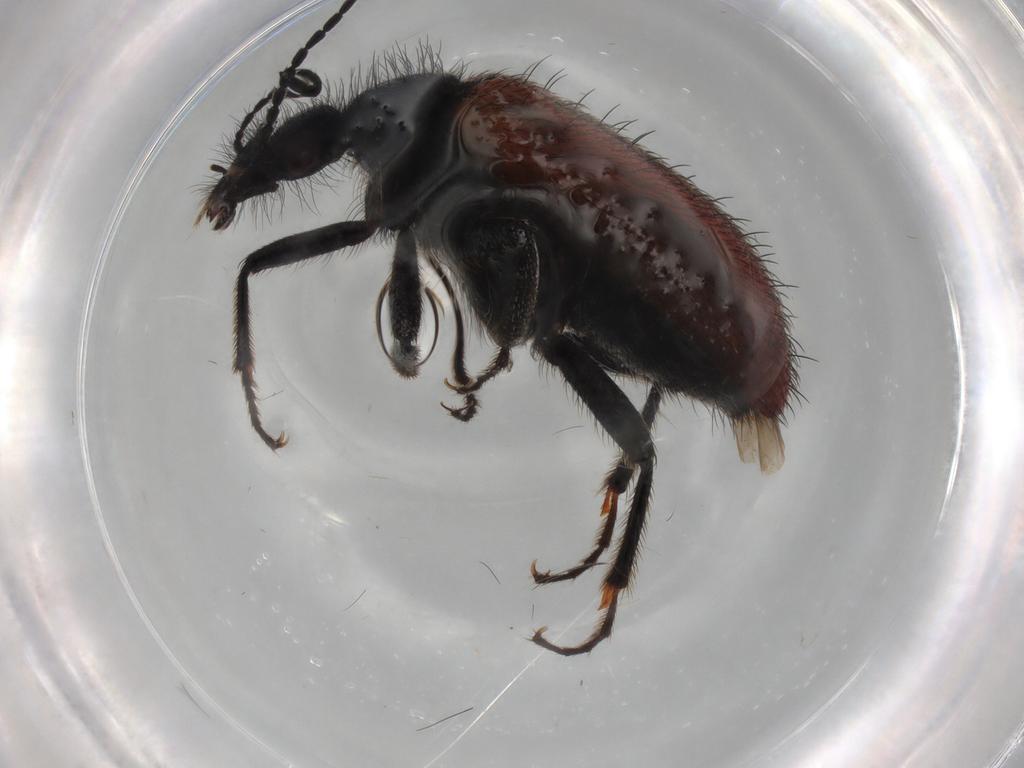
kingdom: Animalia
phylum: Arthropoda
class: Insecta
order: Coleoptera
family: Meloidae
